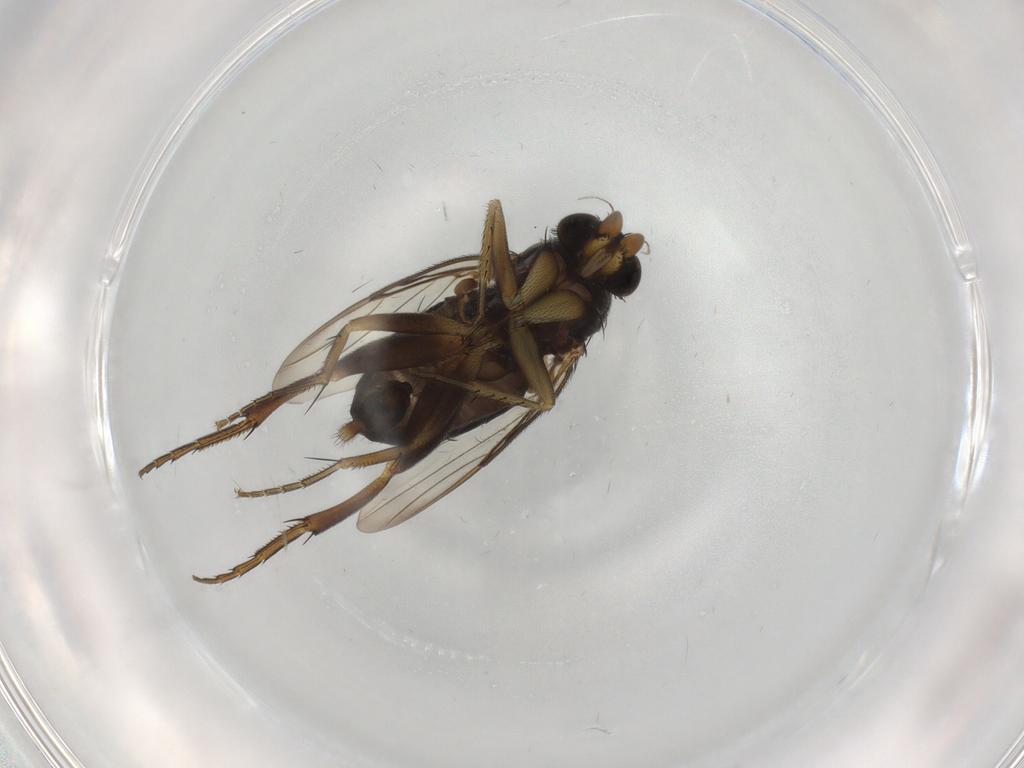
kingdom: Animalia
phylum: Arthropoda
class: Insecta
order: Diptera
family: Phoridae
